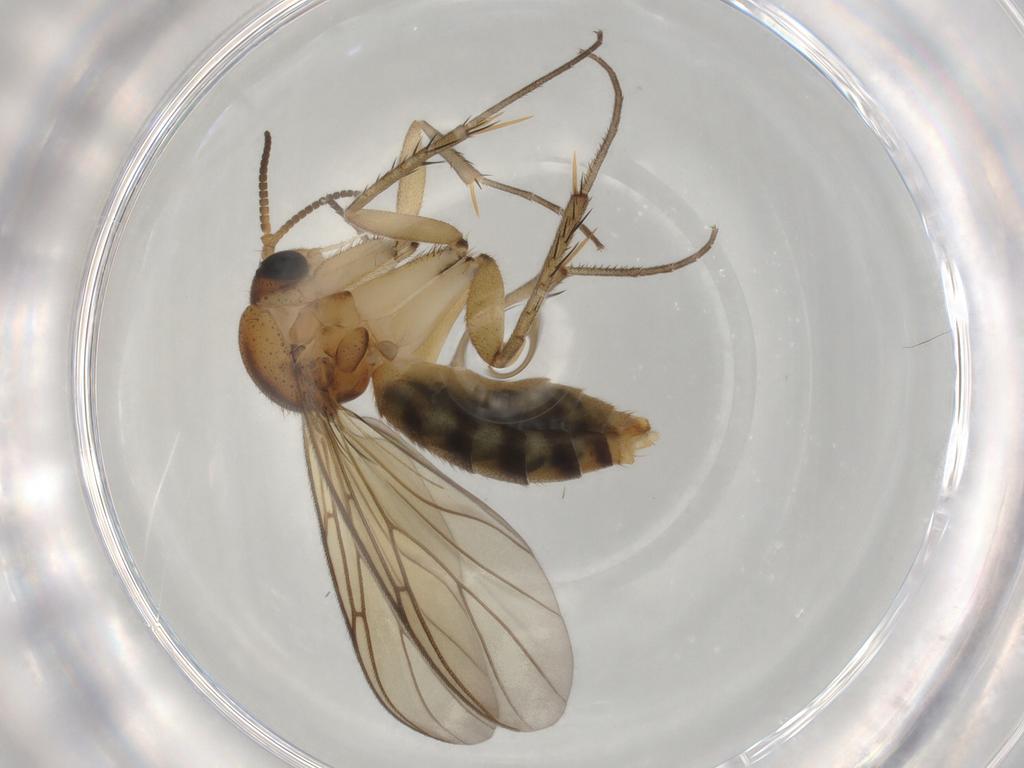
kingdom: Animalia
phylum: Arthropoda
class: Insecta
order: Diptera
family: Mycetophilidae
